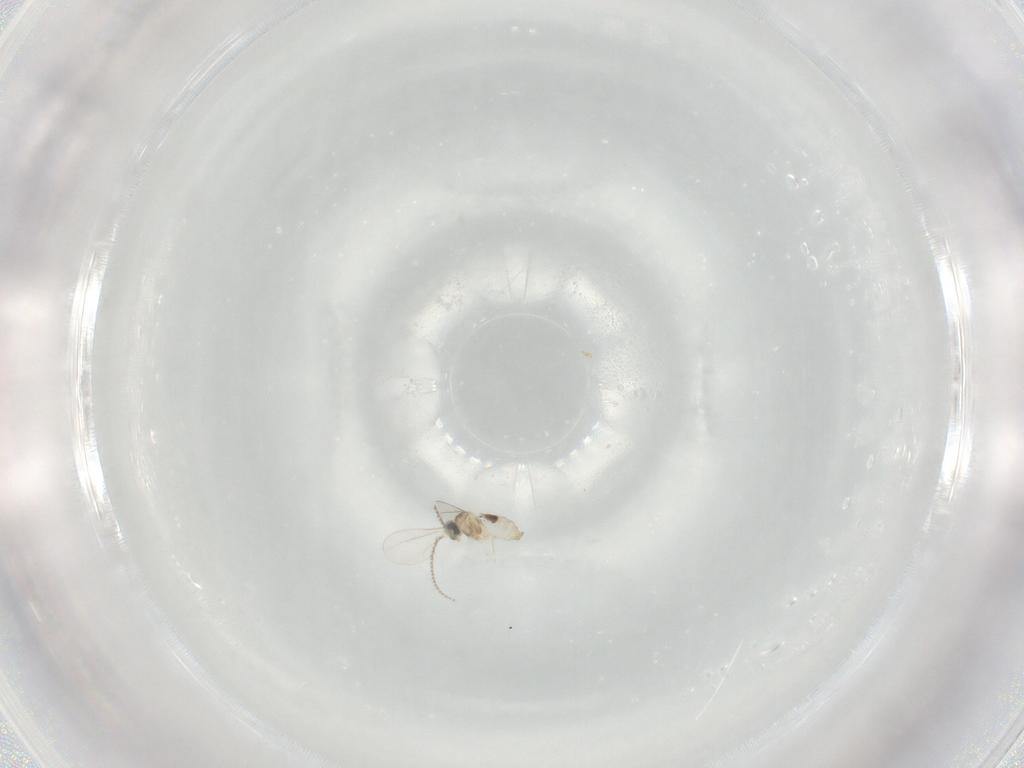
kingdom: Animalia
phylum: Arthropoda
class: Insecta
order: Diptera
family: Cecidomyiidae
